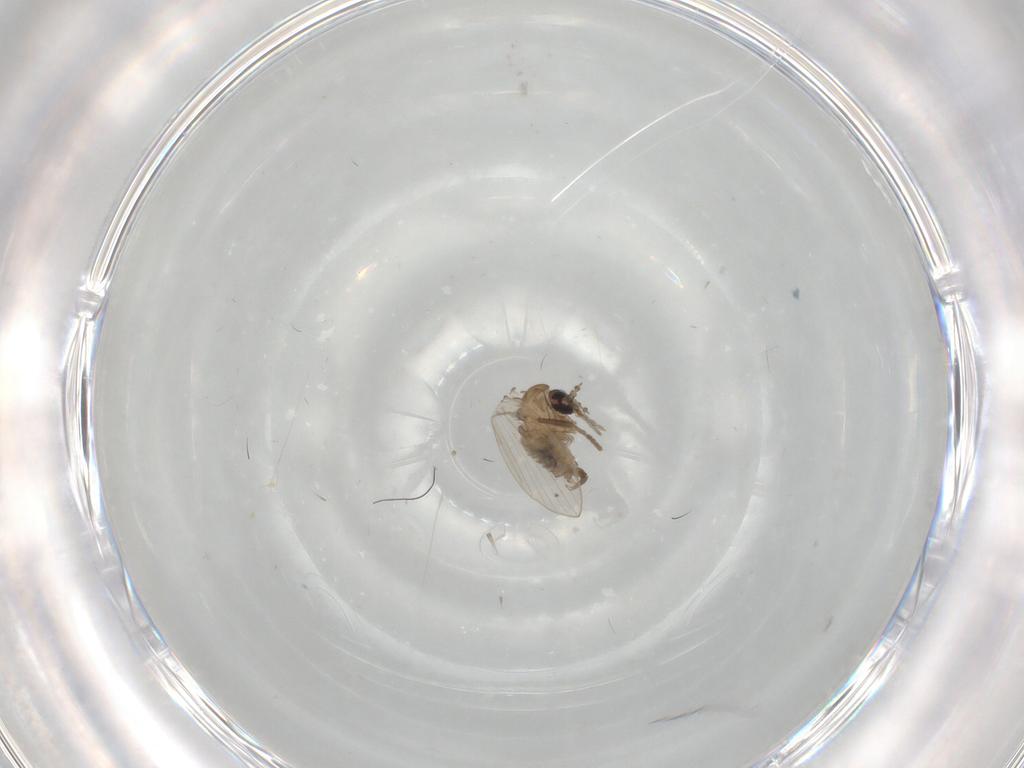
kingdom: Animalia
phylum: Arthropoda
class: Insecta
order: Diptera
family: Psychodidae
